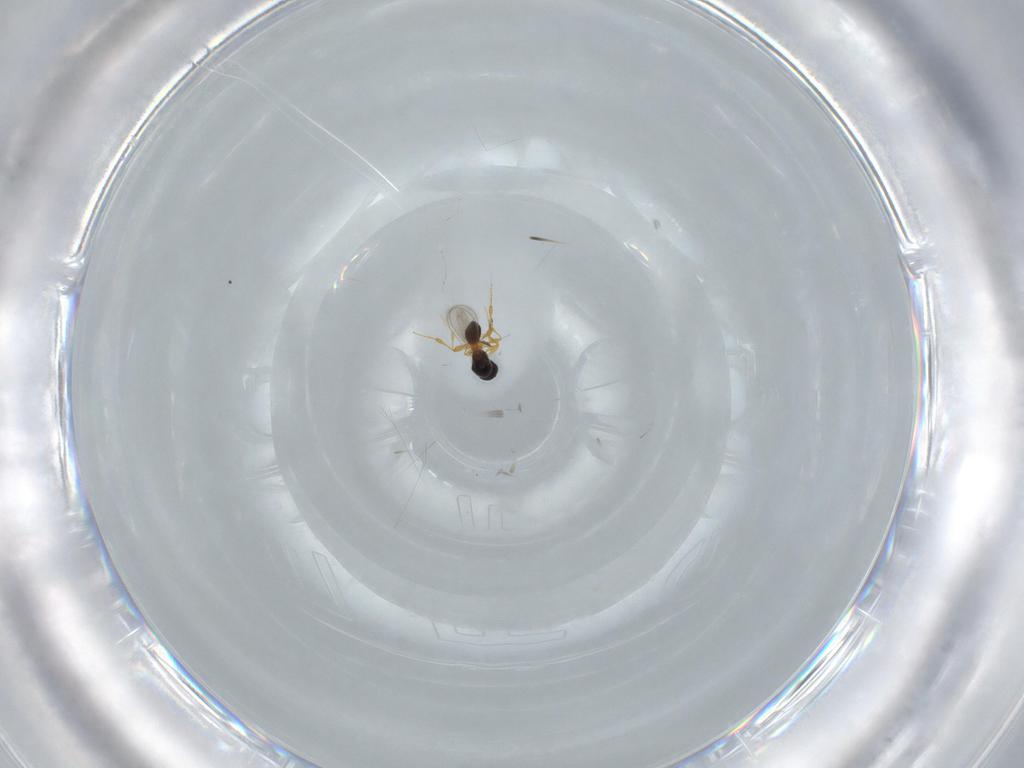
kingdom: Animalia
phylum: Arthropoda
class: Insecta
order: Hymenoptera
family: Platygastridae
